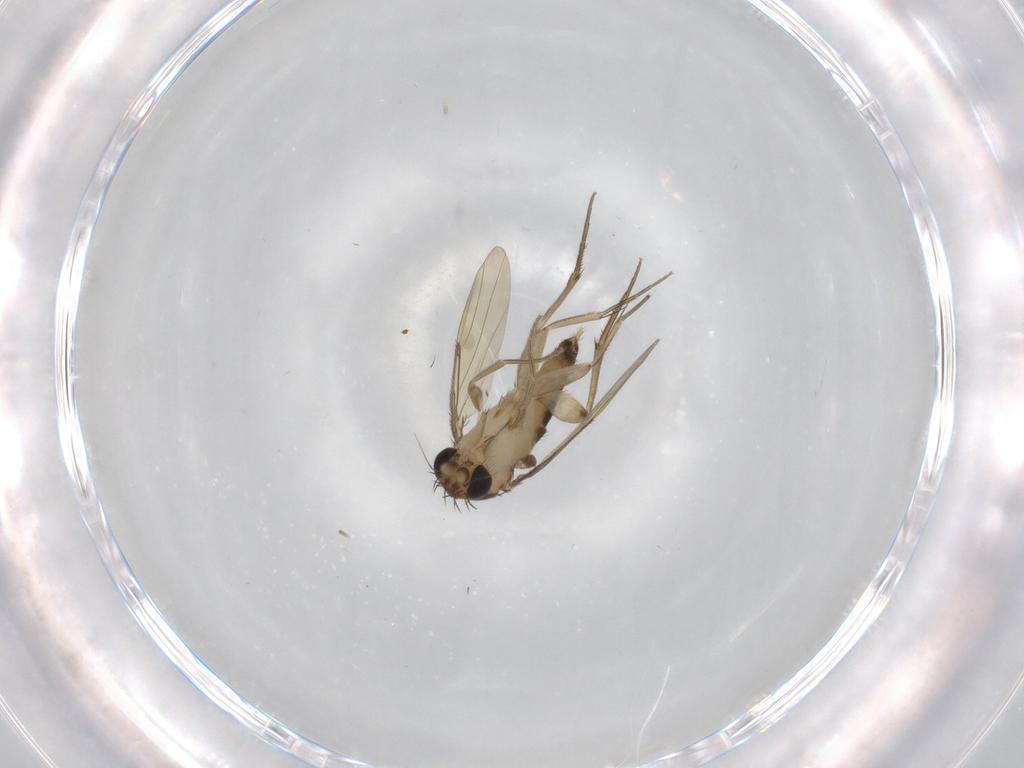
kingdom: Animalia
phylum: Arthropoda
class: Insecta
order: Diptera
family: Phoridae
